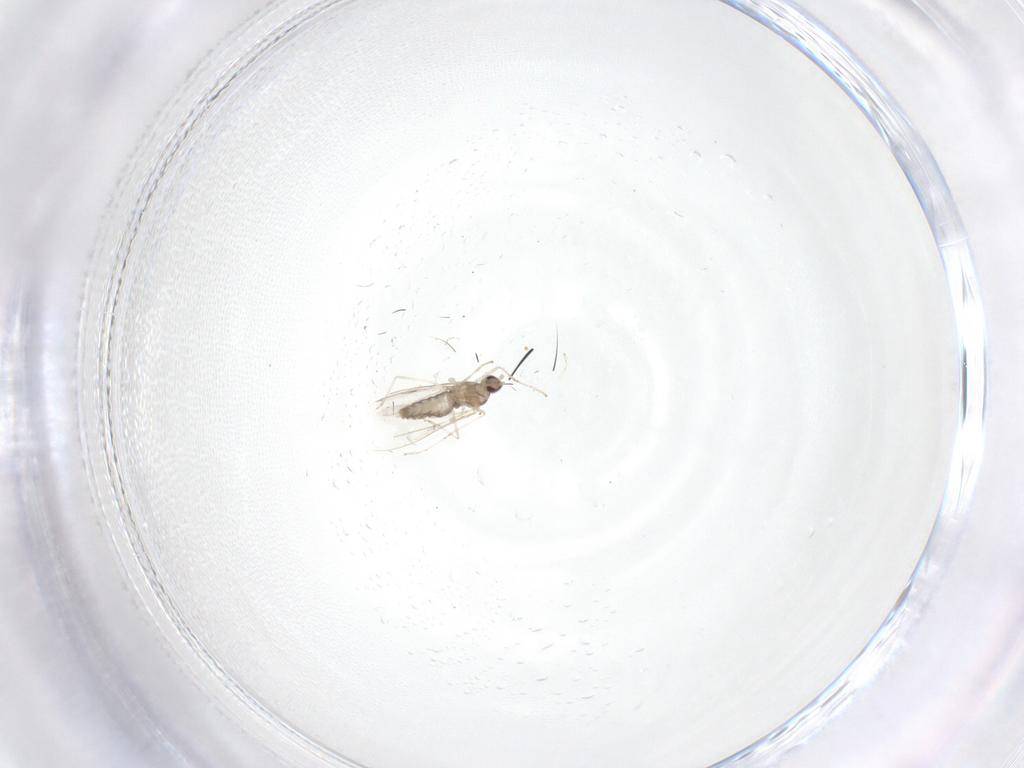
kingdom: Animalia
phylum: Arthropoda
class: Insecta
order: Diptera
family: Cecidomyiidae
